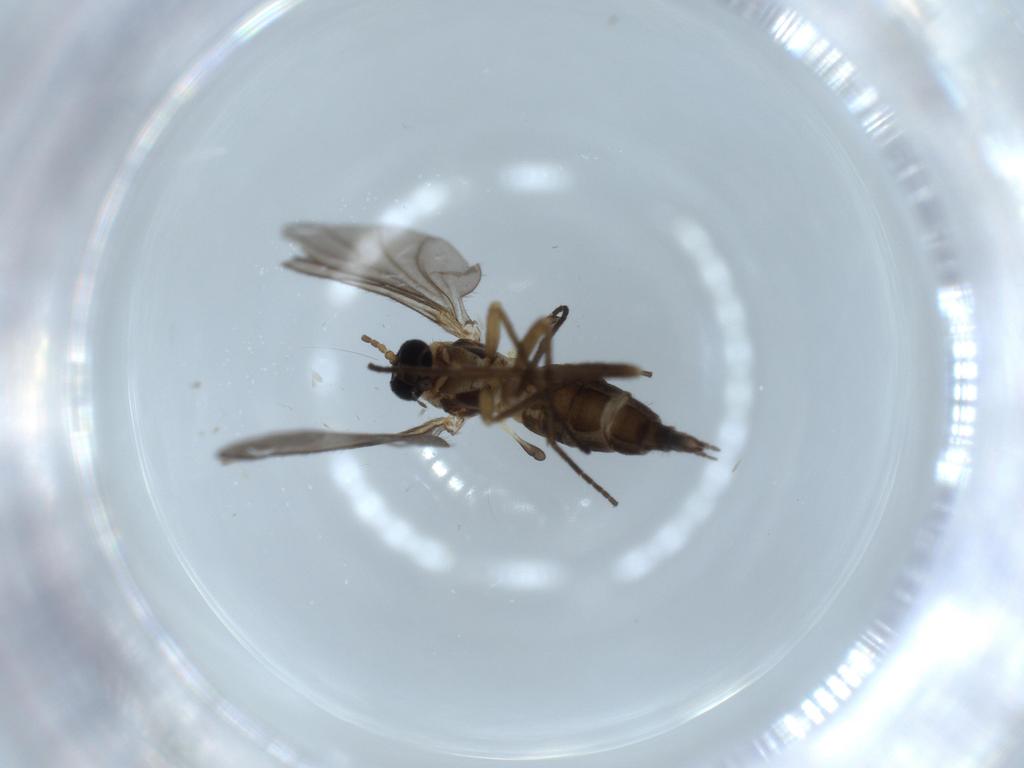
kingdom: Animalia
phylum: Arthropoda
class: Insecta
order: Diptera
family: Sciaridae
